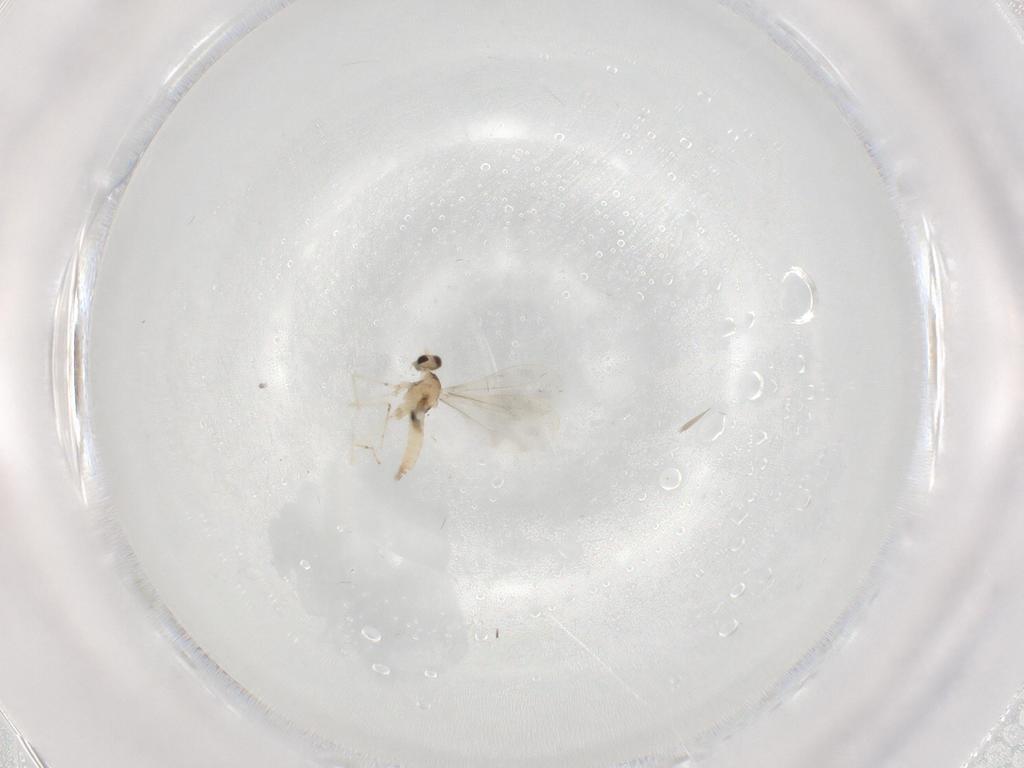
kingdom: Animalia
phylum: Arthropoda
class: Insecta
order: Diptera
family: Cecidomyiidae
